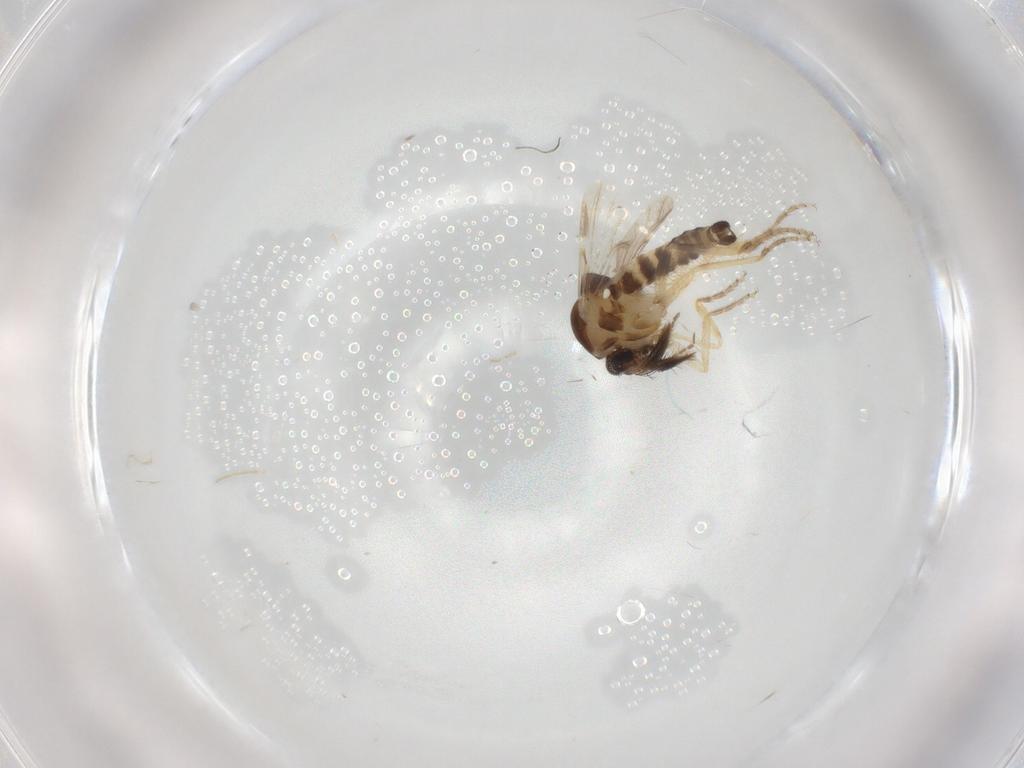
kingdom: Animalia
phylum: Arthropoda
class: Insecta
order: Diptera
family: Ceratopogonidae
